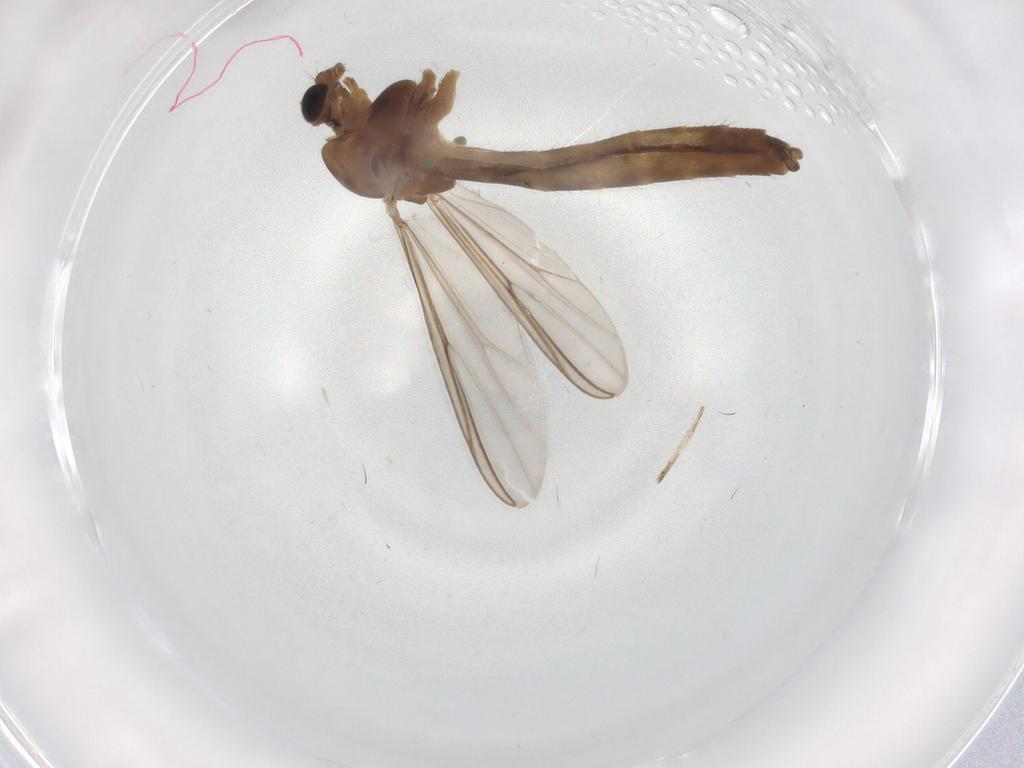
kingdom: Animalia
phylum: Arthropoda
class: Insecta
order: Diptera
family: Chironomidae
